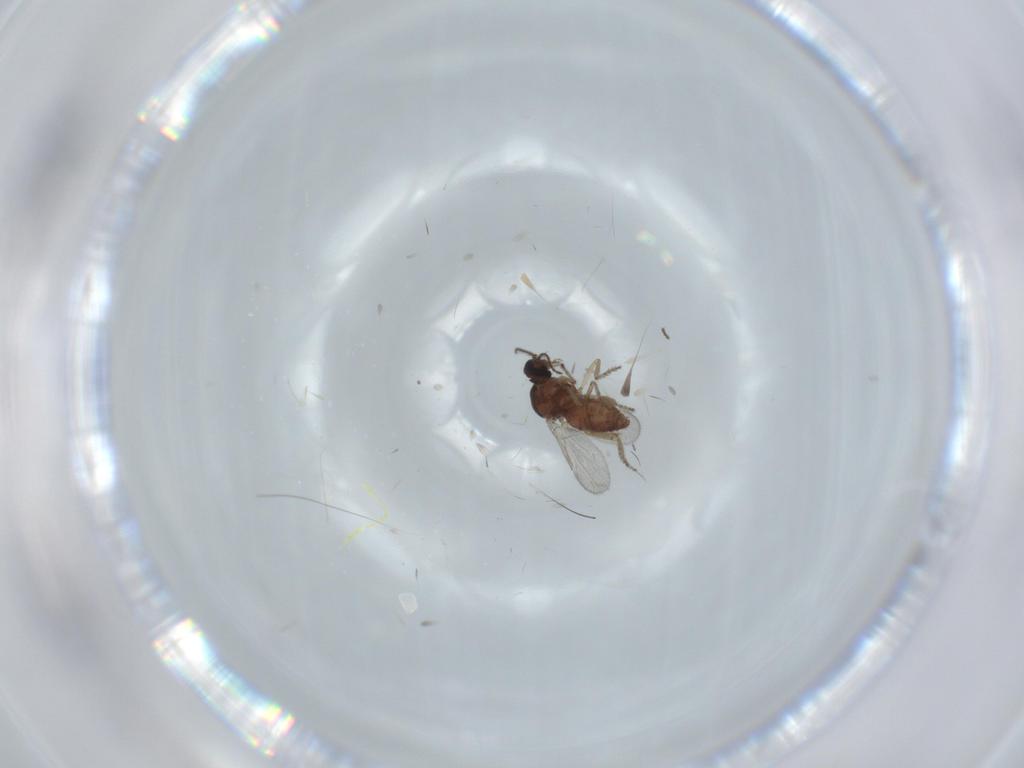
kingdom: Animalia
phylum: Arthropoda
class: Insecta
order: Diptera
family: Ceratopogonidae
